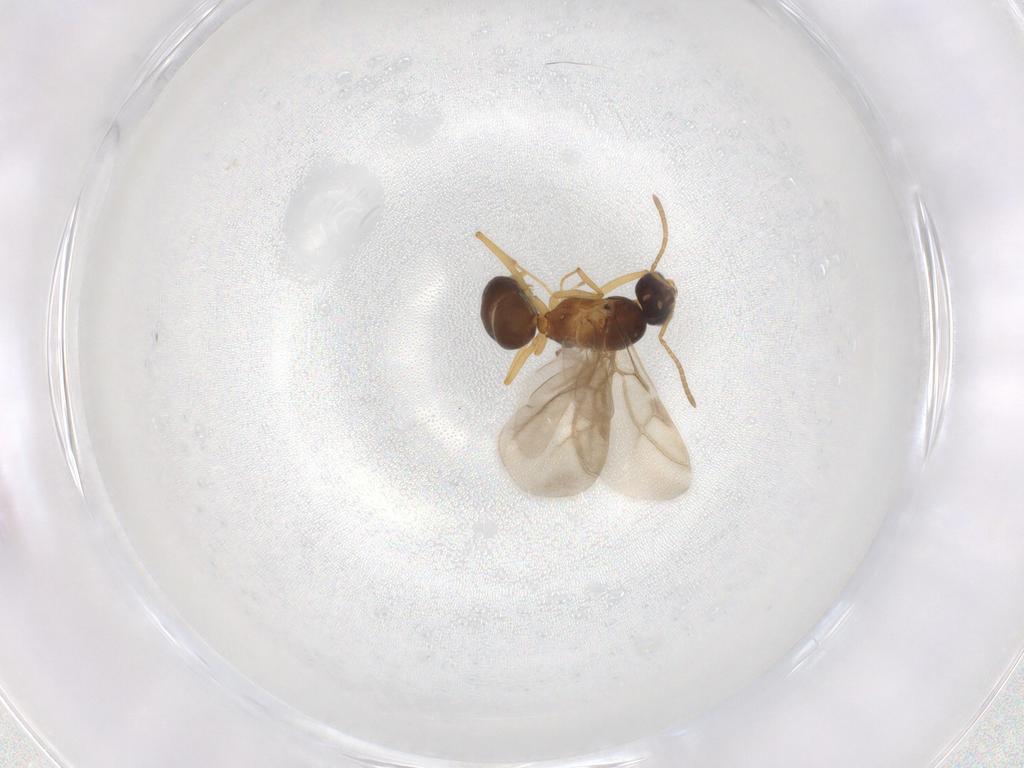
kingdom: Animalia
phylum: Arthropoda
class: Insecta
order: Hymenoptera
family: Formicidae
